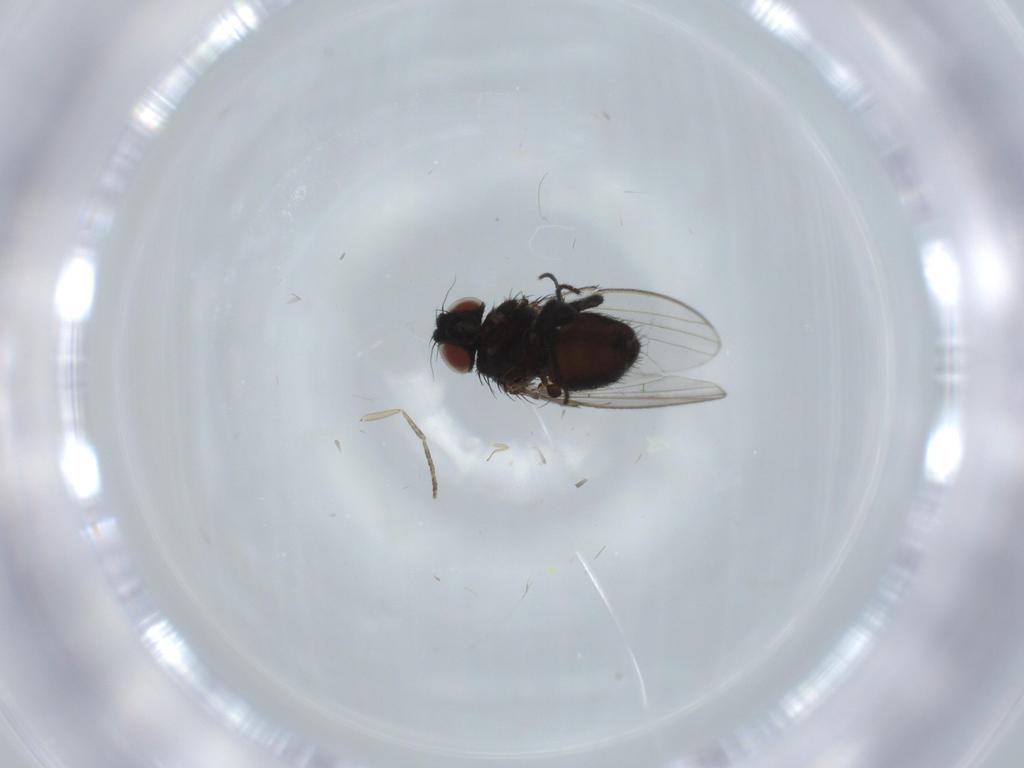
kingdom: Animalia
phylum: Arthropoda
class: Insecta
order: Diptera
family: Milichiidae
